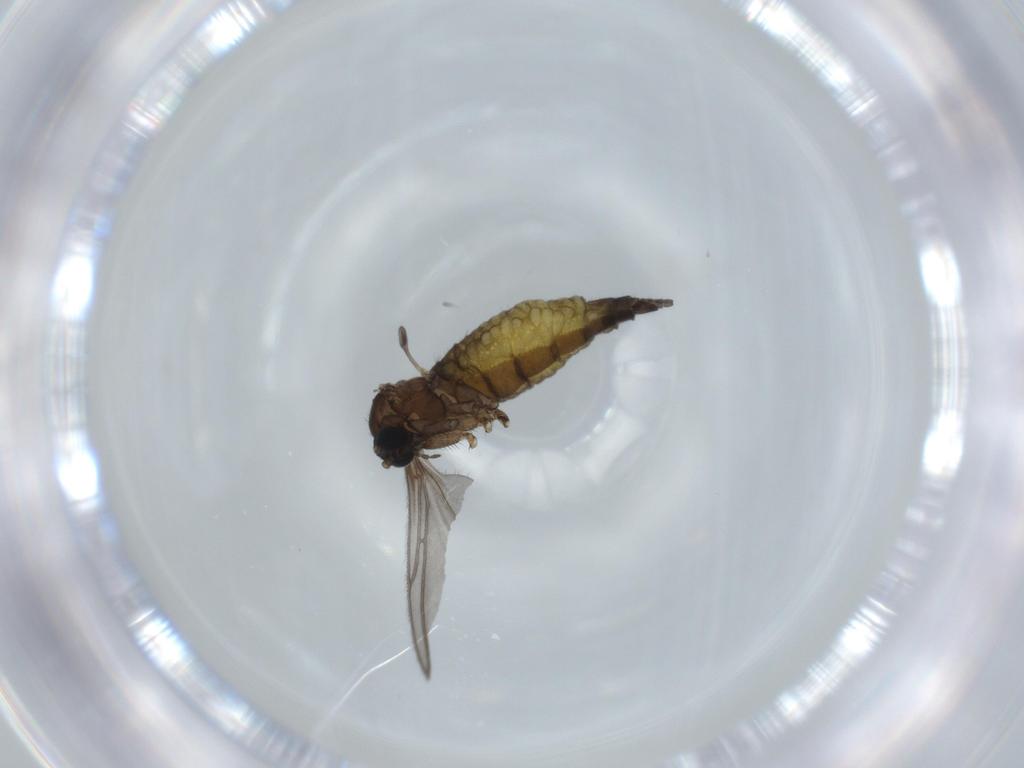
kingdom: Animalia
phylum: Arthropoda
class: Insecta
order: Diptera
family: Sciaridae
